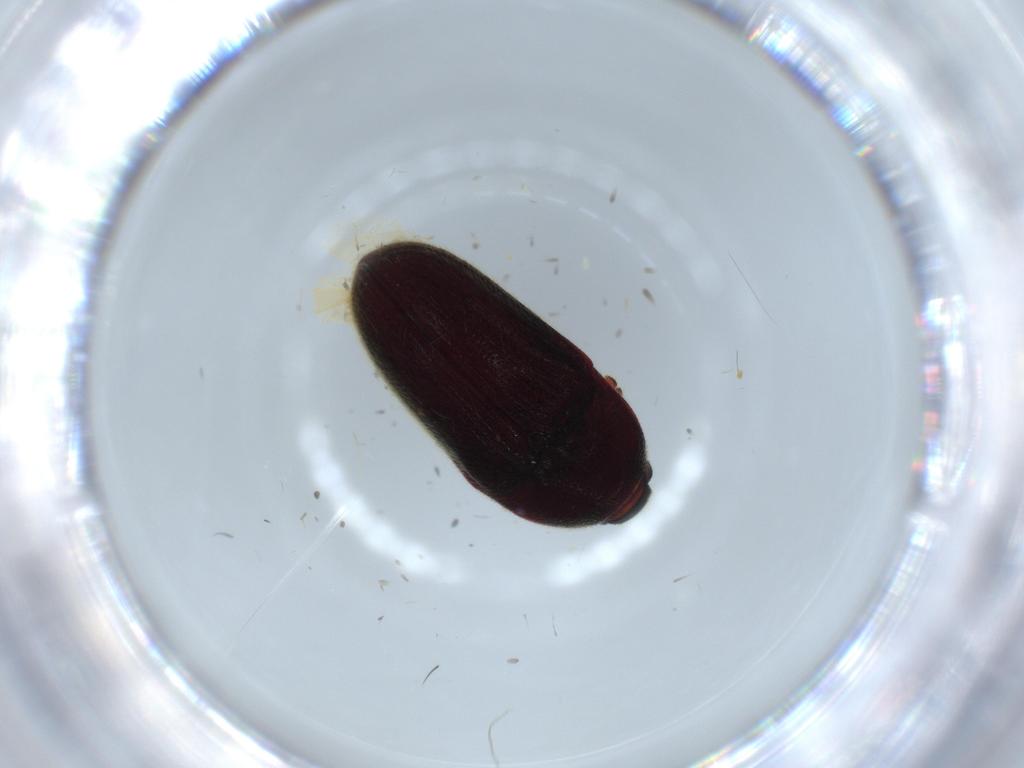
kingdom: Animalia
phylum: Arthropoda
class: Insecta
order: Coleoptera
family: Throscidae
